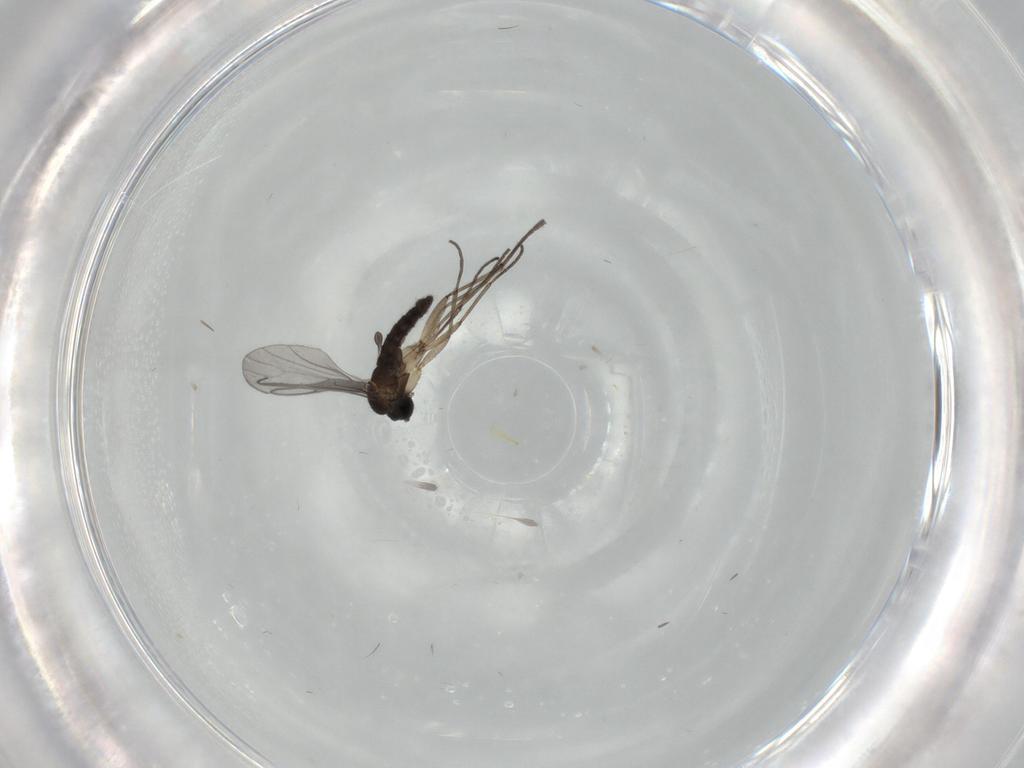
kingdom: Animalia
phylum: Arthropoda
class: Insecta
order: Diptera
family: Sciaridae
